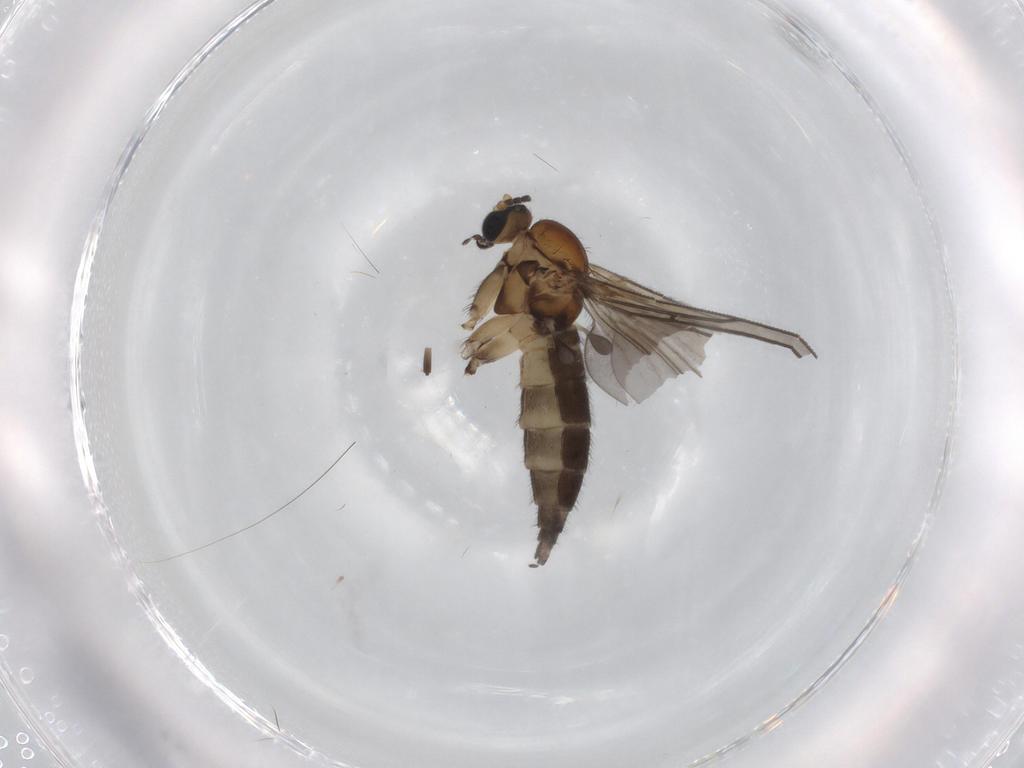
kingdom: Animalia
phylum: Arthropoda
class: Insecta
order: Diptera
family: Cecidomyiidae
